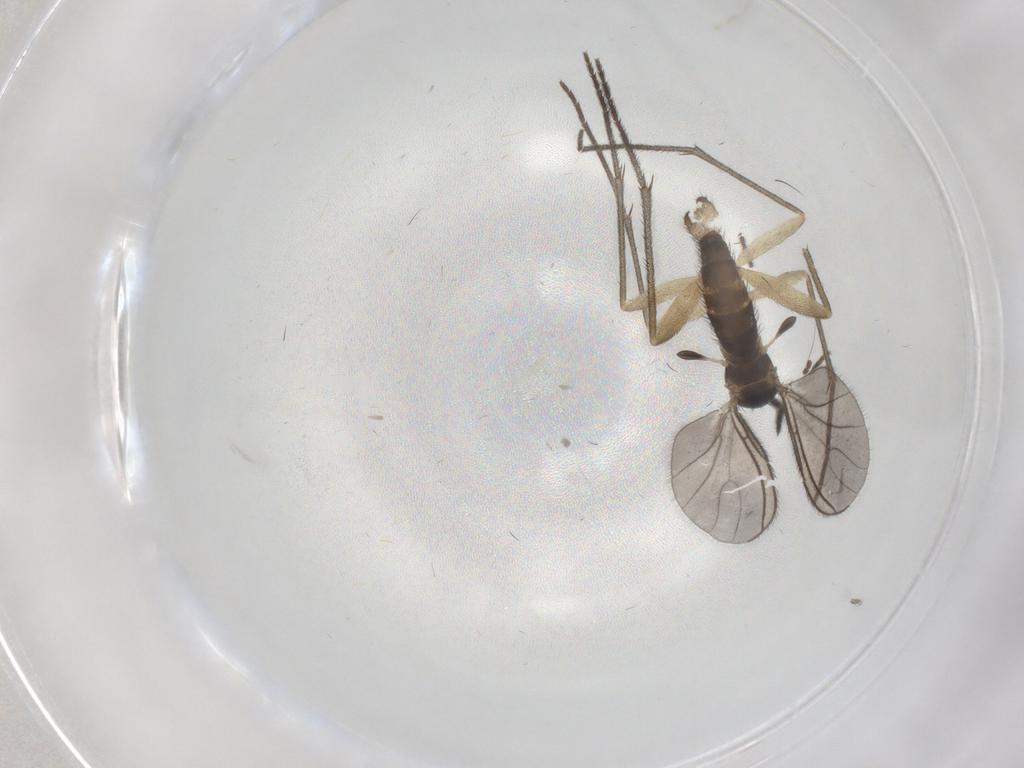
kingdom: Animalia
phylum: Arthropoda
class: Insecta
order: Diptera
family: Sciaridae
